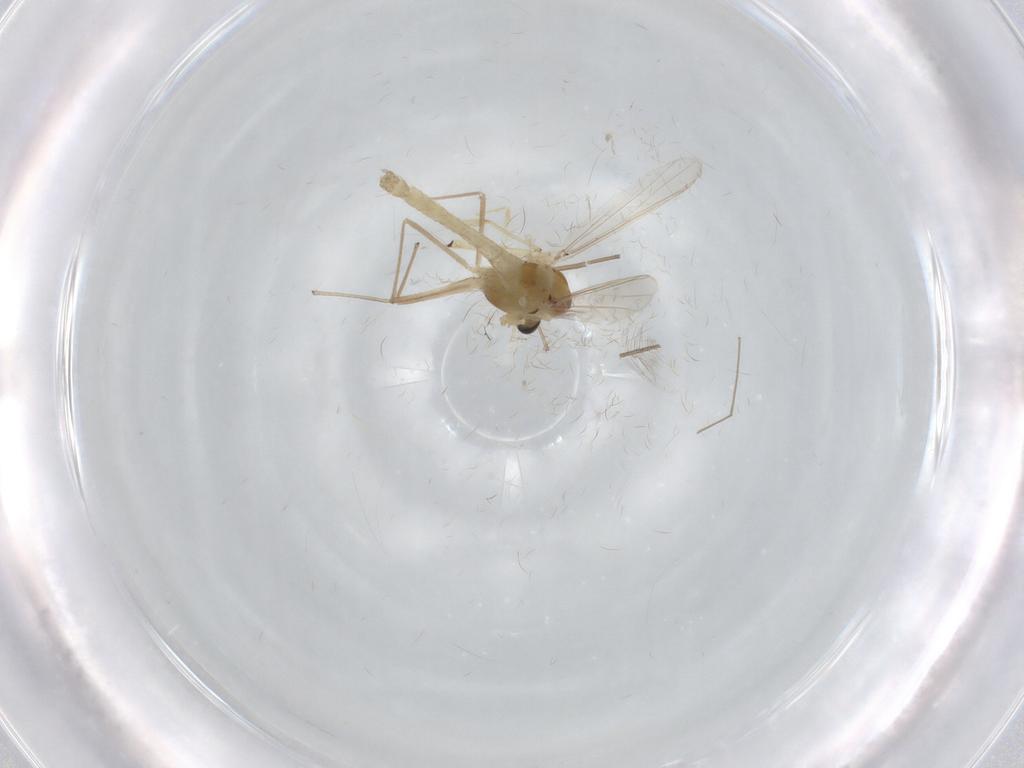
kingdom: Animalia
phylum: Arthropoda
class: Insecta
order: Diptera
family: Chironomidae
